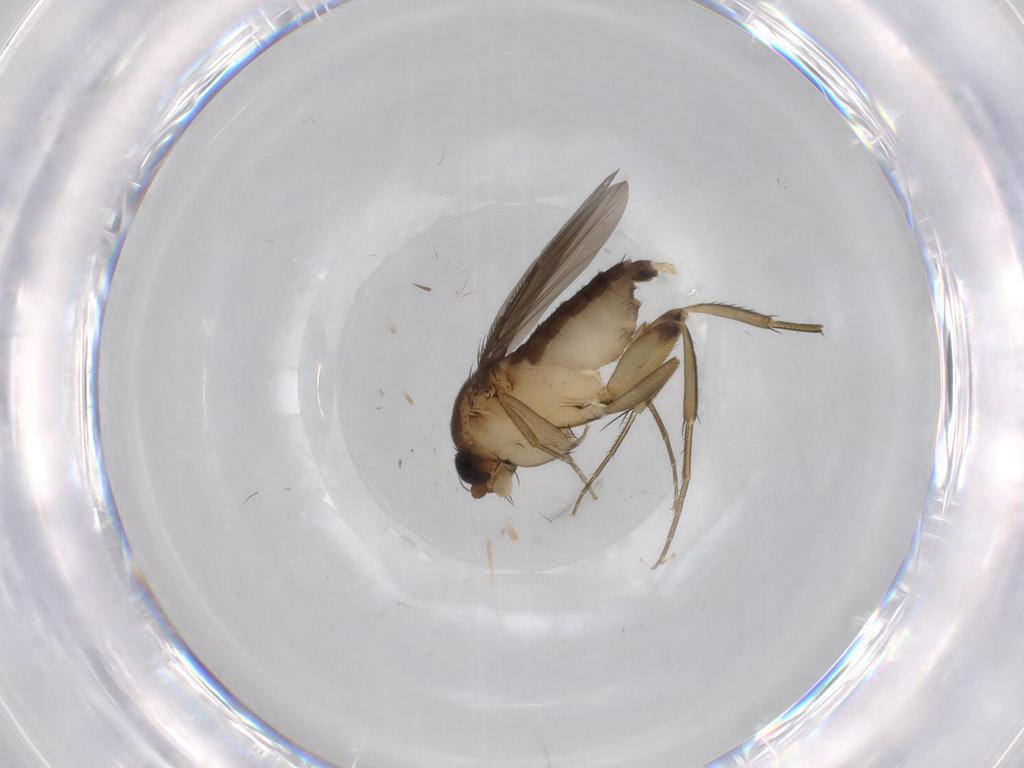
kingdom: Animalia
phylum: Arthropoda
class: Insecta
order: Diptera
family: Phoridae
